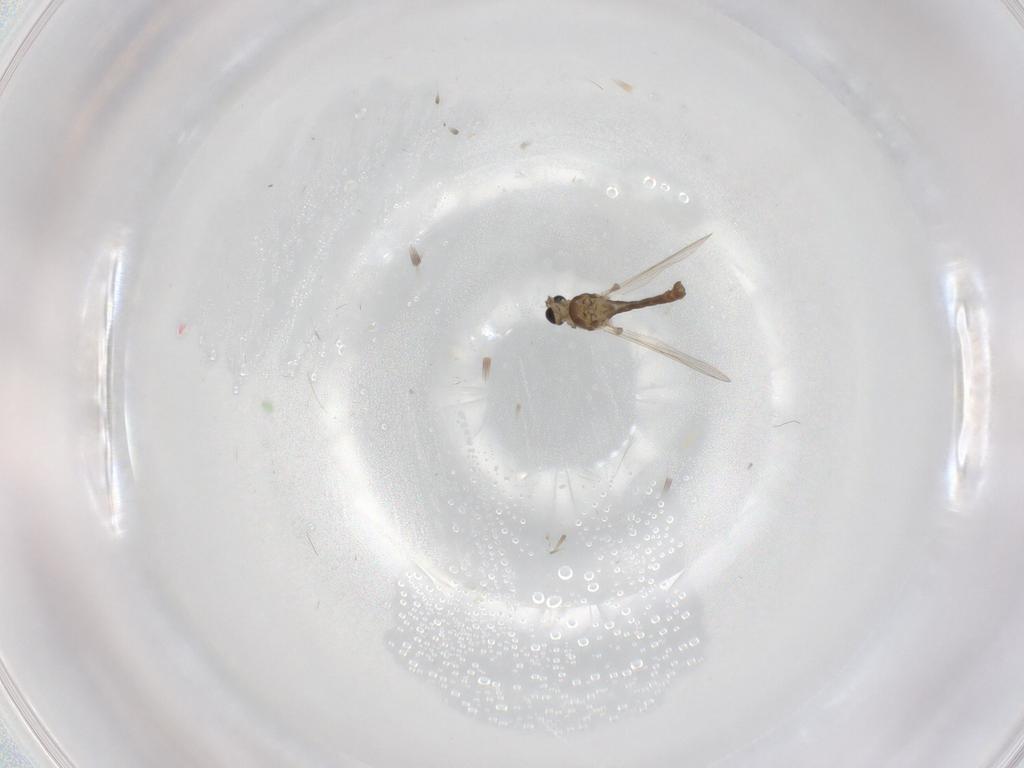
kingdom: Animalia
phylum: Arthropoda
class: Insecta
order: Diptera
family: Chironomidae
